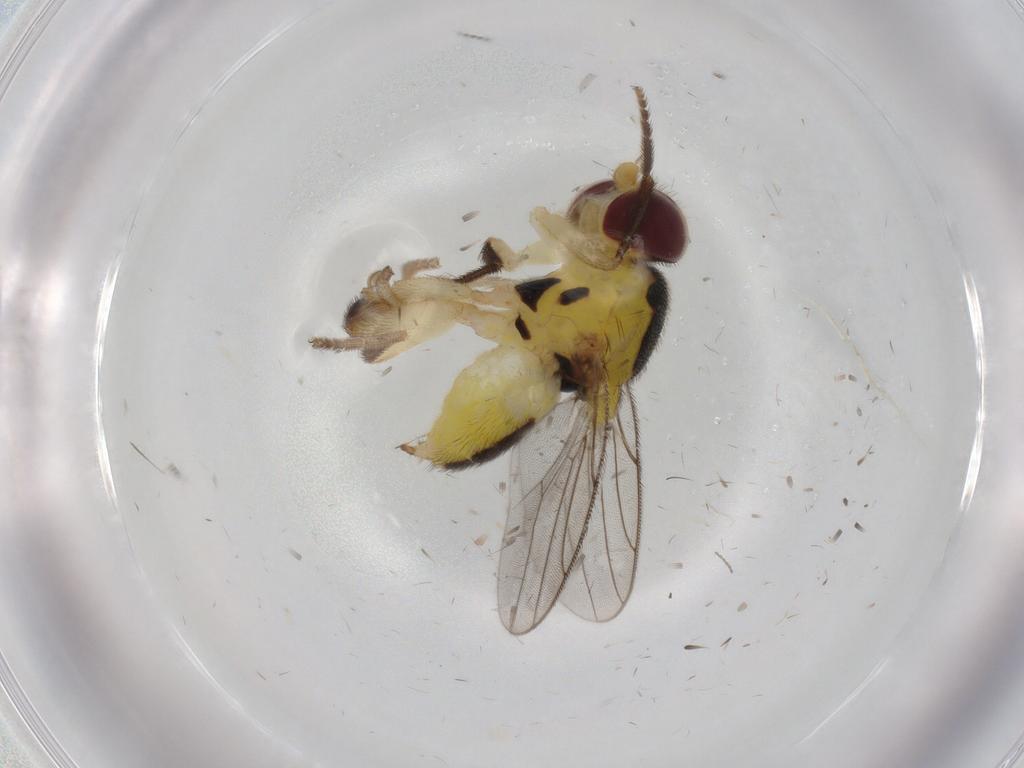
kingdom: Animalia
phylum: Arthropoda
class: Insecta
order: Diptera
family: Chloropidae
